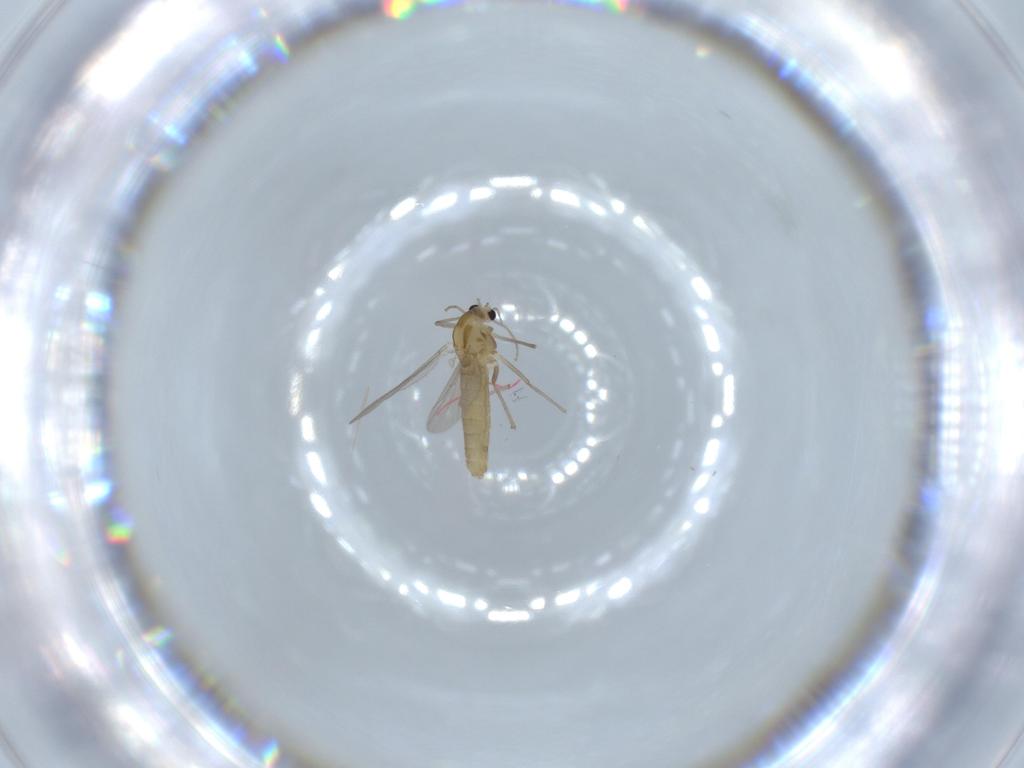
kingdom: Animalia
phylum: Arthropoda
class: Insecta
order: Diptera
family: Chironomidae
